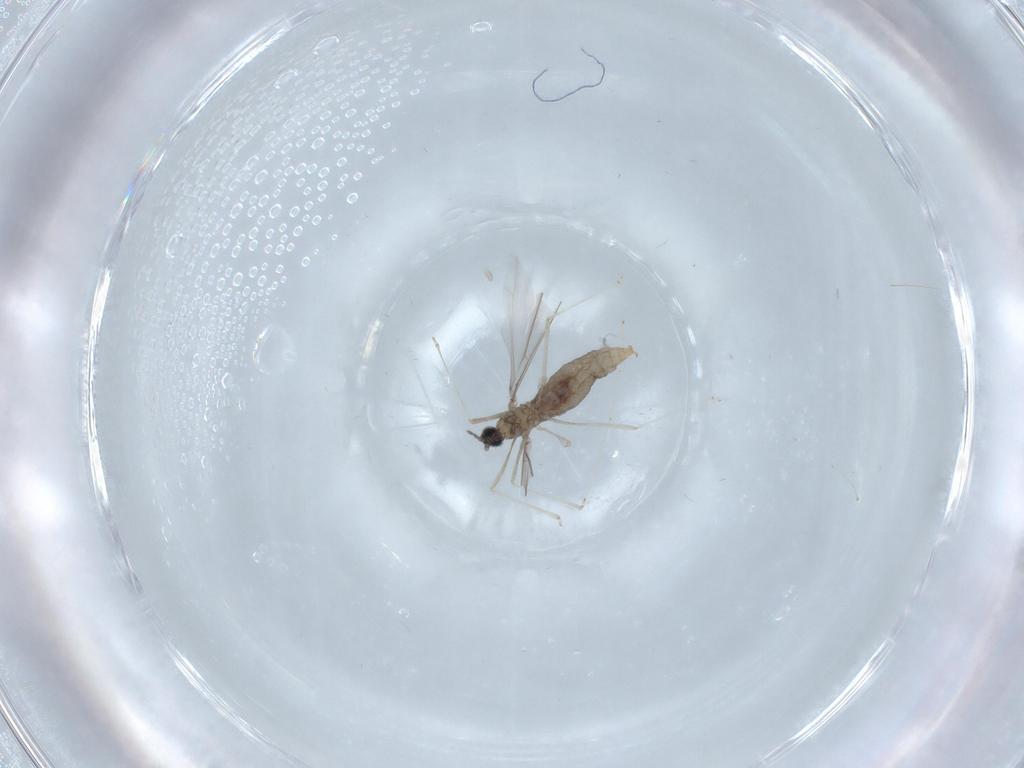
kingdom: Animalia
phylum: Arthropoda
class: Insecta
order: Diptera
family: Chironomidae
